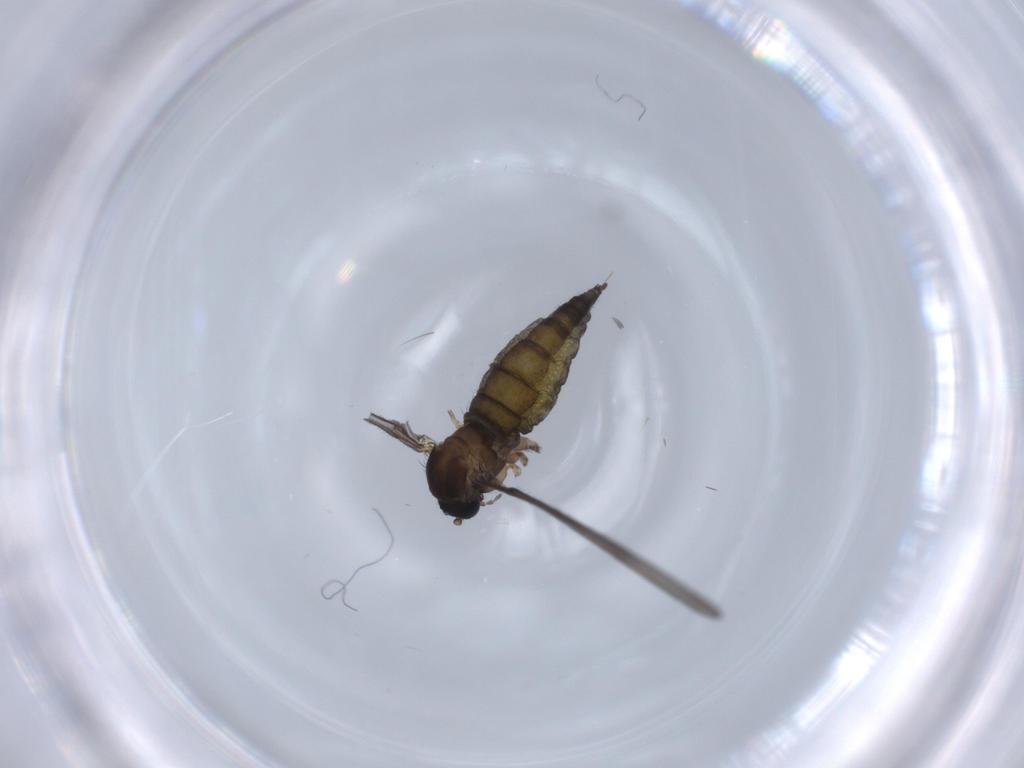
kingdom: Animalia
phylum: Arthropoda
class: Insecta
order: Diptera
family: Sciaridae
